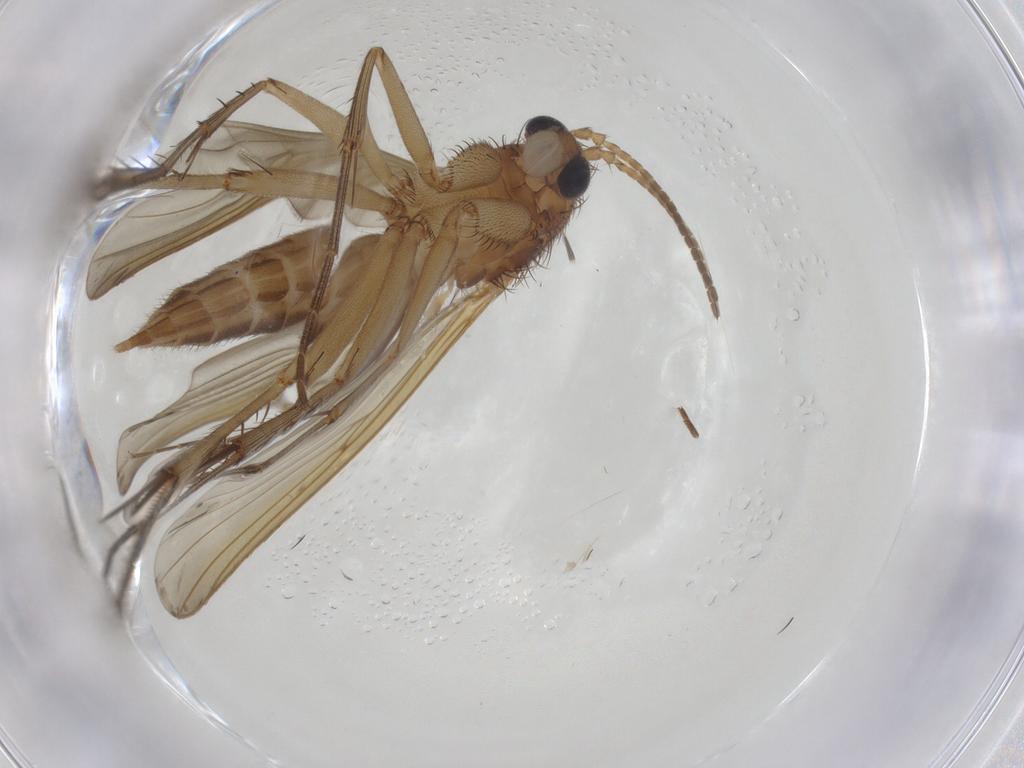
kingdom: Animalia
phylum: Arthropoda
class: Insecta
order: Diptera
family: Mycetophilidae
